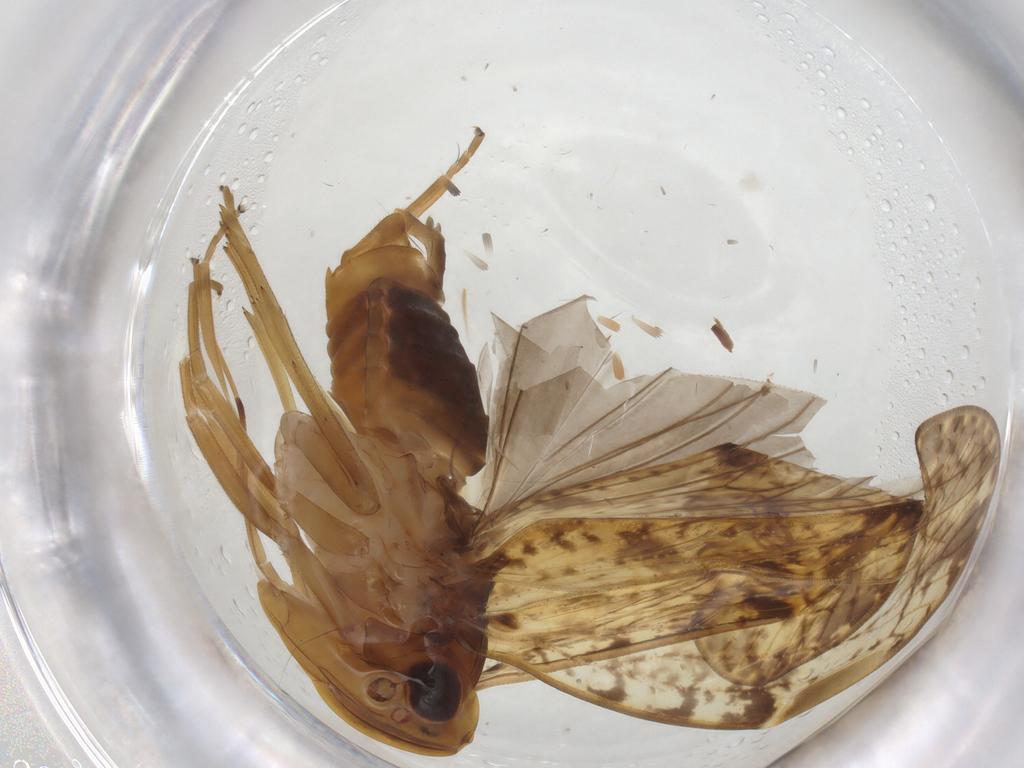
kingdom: Animalia
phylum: Arthropoda
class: Insecta
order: Hemiptera
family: Cixiidae
